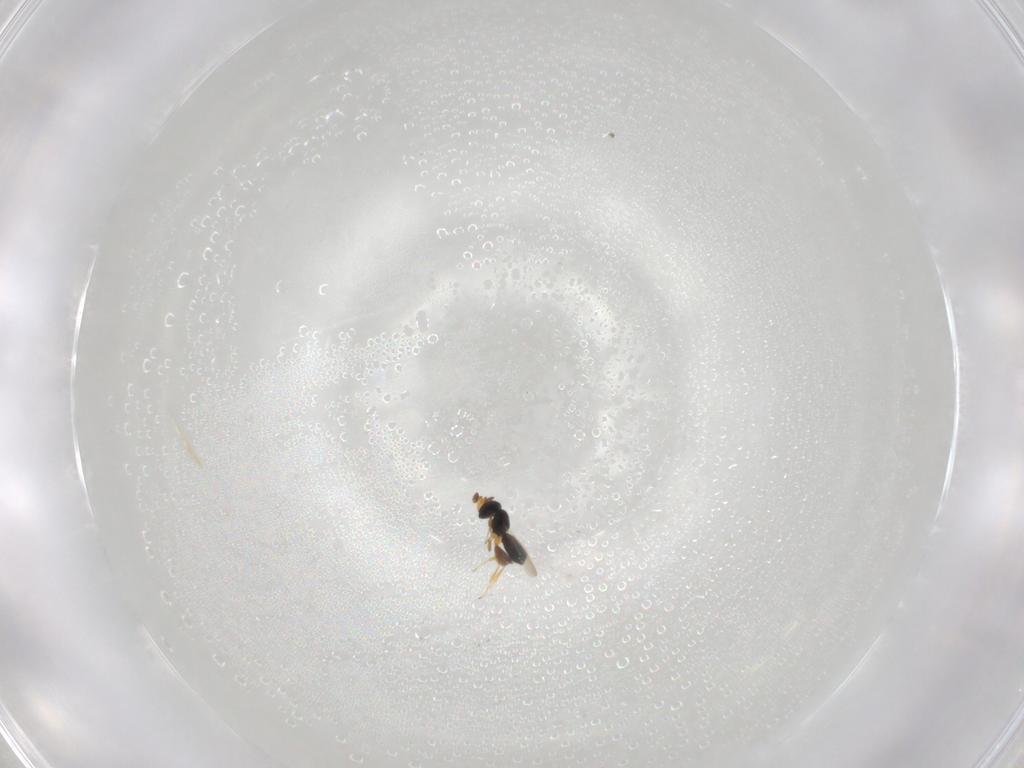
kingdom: Animalia
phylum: Arthropoda
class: Insecta
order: Hymenoptera
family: Platygastridae
